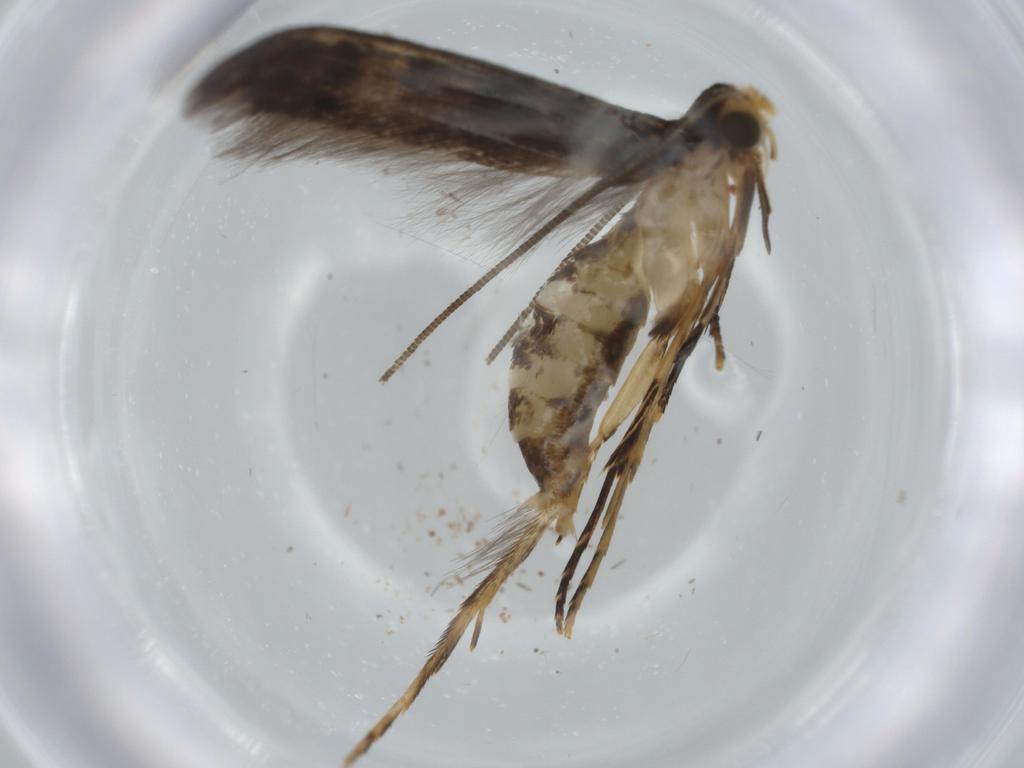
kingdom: Animalia
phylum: Arthropoda
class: Insecta
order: Lepidoptera
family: Tineidae
